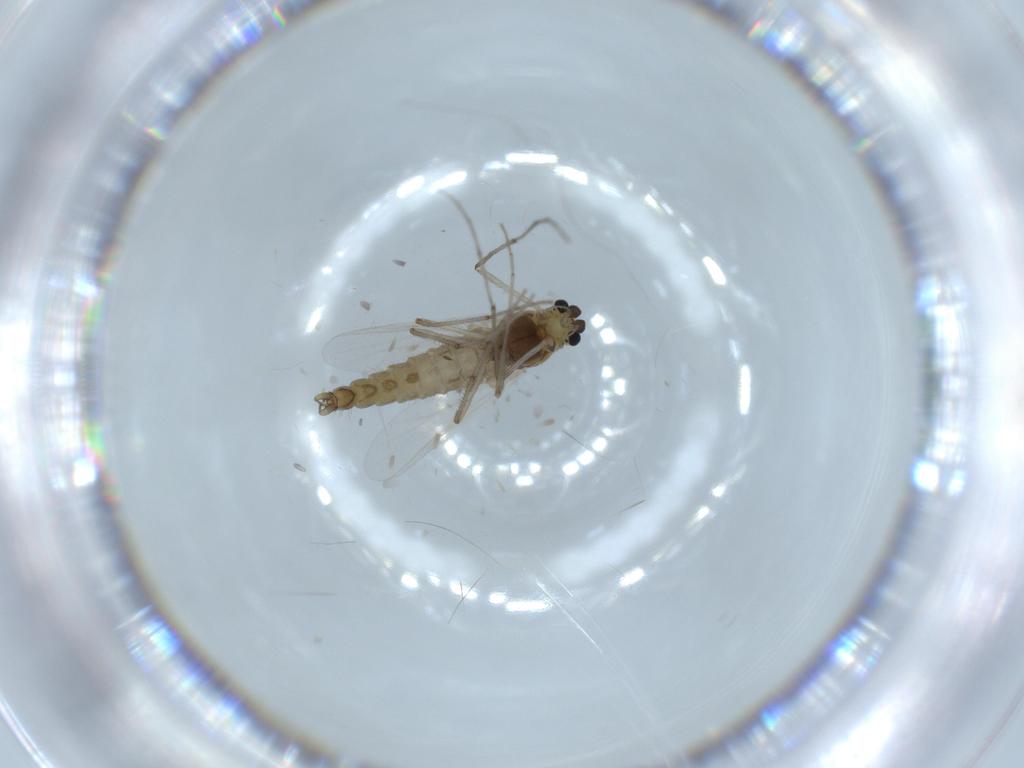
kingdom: Animalia
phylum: Arthropoda
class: Insecta
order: Diptera
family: Chironomidae
